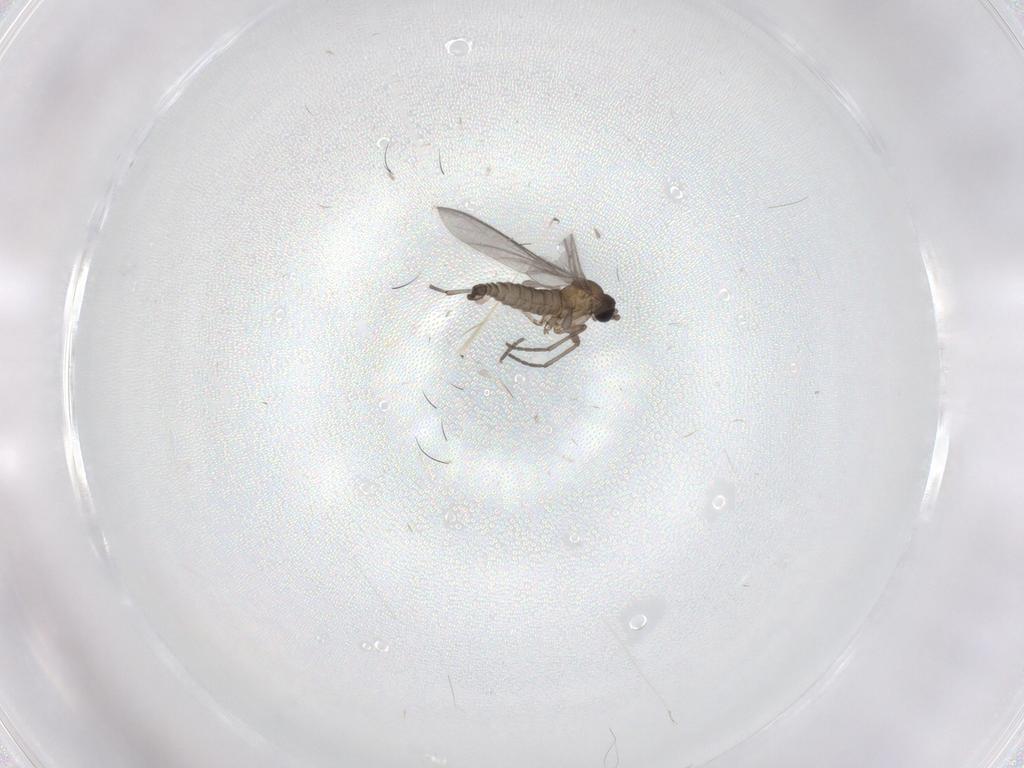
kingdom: Animalia
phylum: Arthropoda
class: Insecta
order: Diptera
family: Sciaridae
